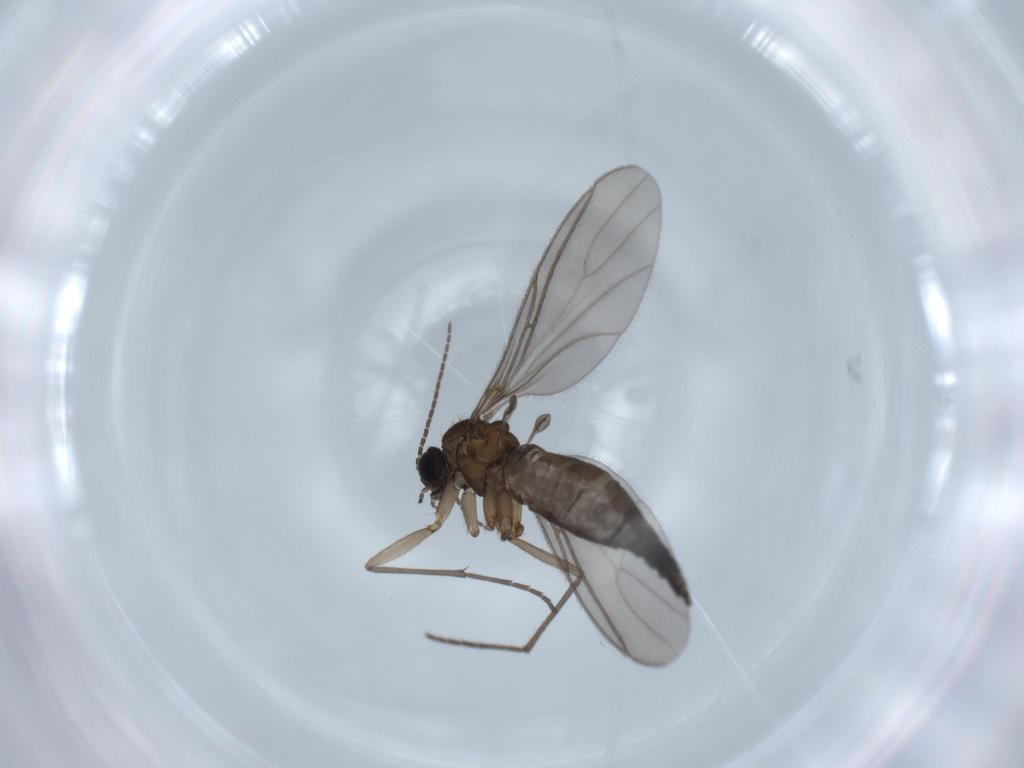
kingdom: Animalia
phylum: Arthropoda
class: Insecta
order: Diptera
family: Sciaridae
